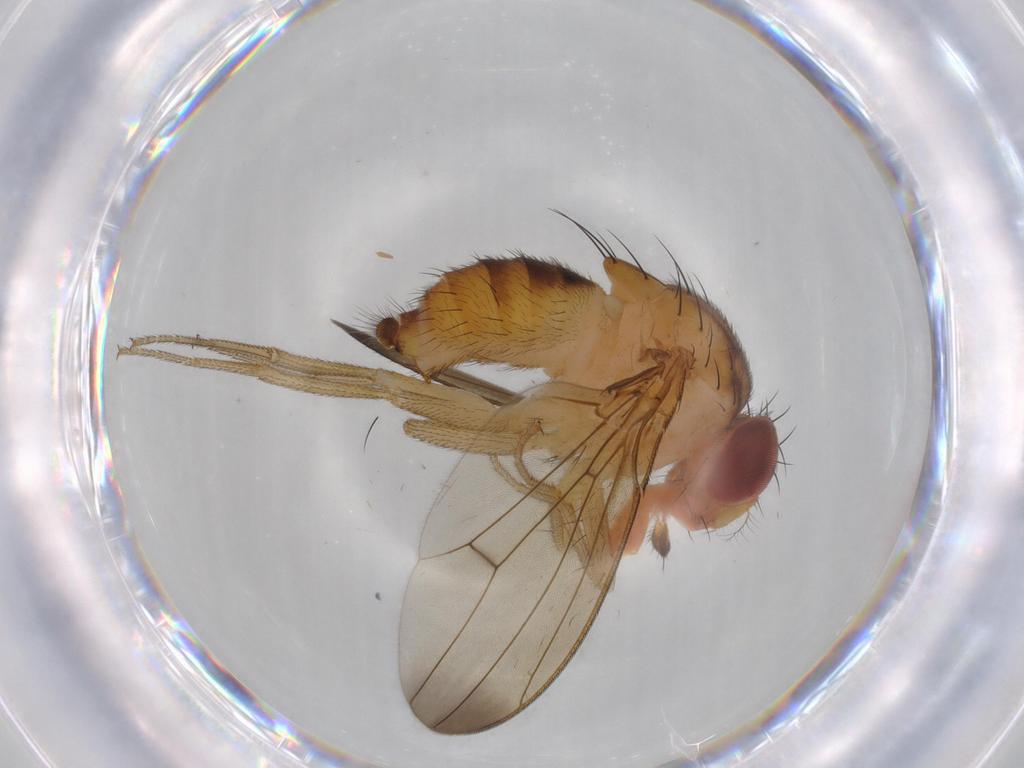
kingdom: Animalia
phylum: Arthropoda
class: Insecta
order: Diptera
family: Drosophilidae
